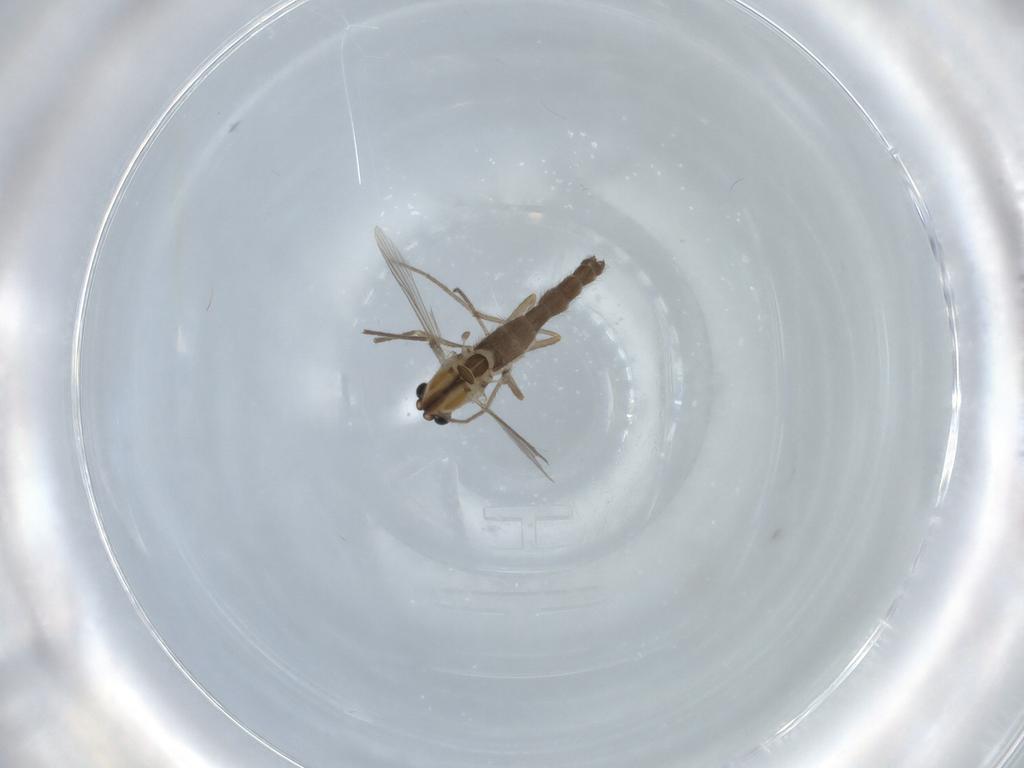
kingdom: Animalia
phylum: Arthropoda
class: Insecta
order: Diptera
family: Chironomidae
